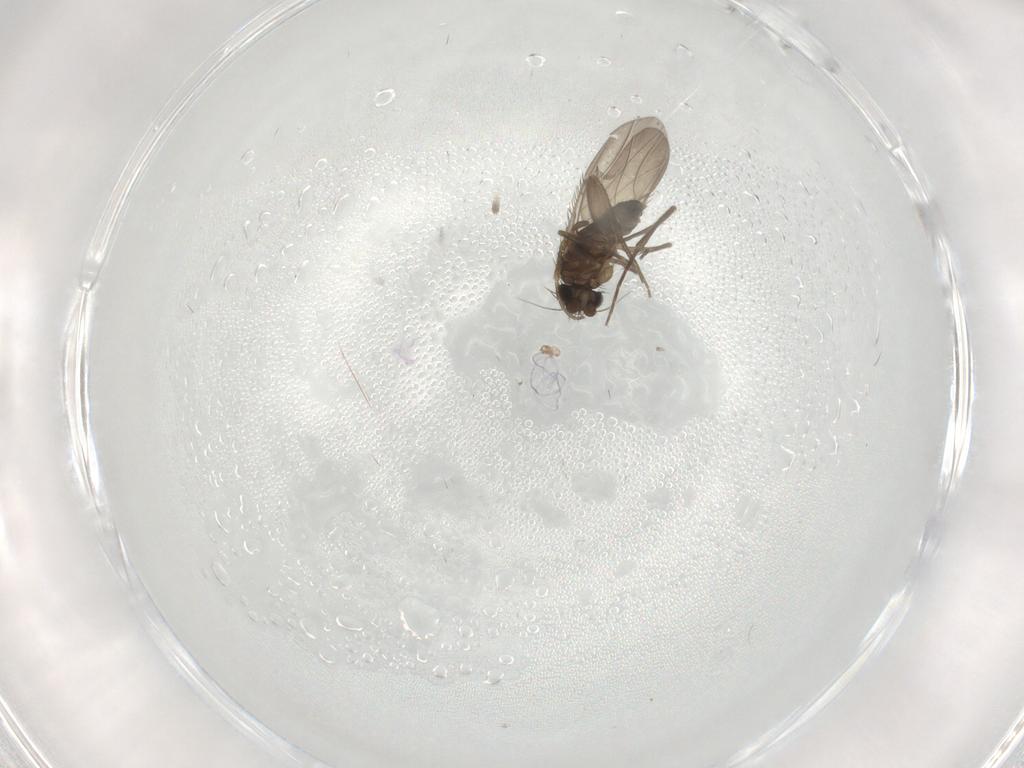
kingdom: Animalia
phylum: Arthropoda
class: Insecta
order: Diptera
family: Phoridae
